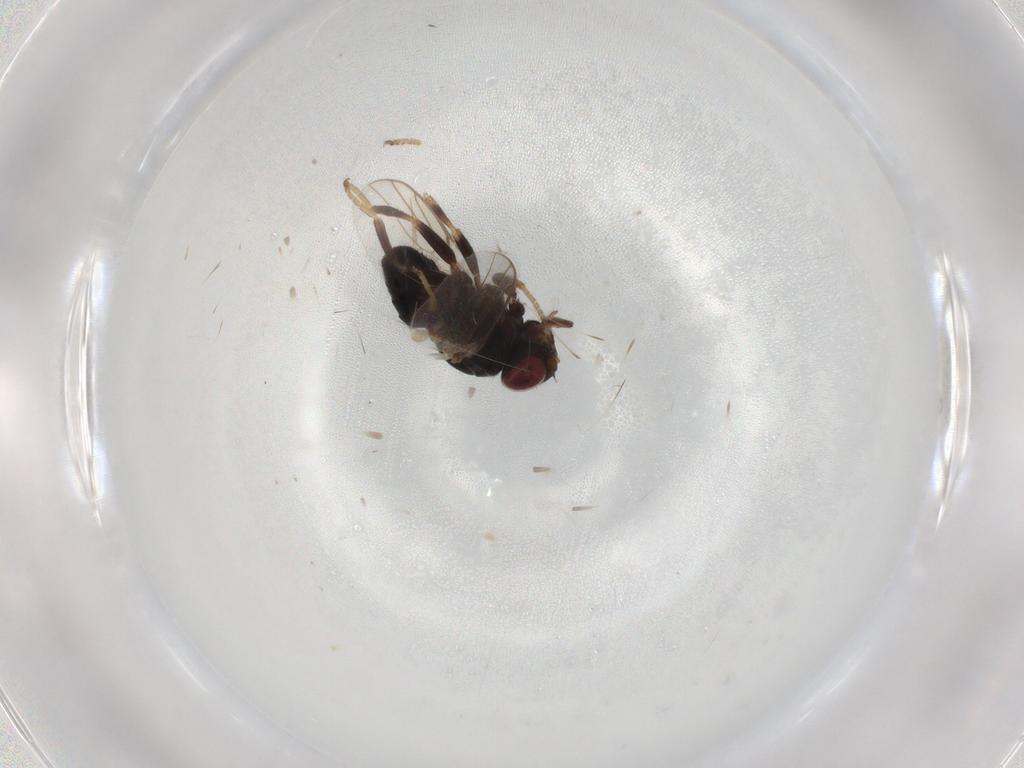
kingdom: Animalia
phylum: Arthropoda
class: Insecta
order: Diptera
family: Chloropidae
